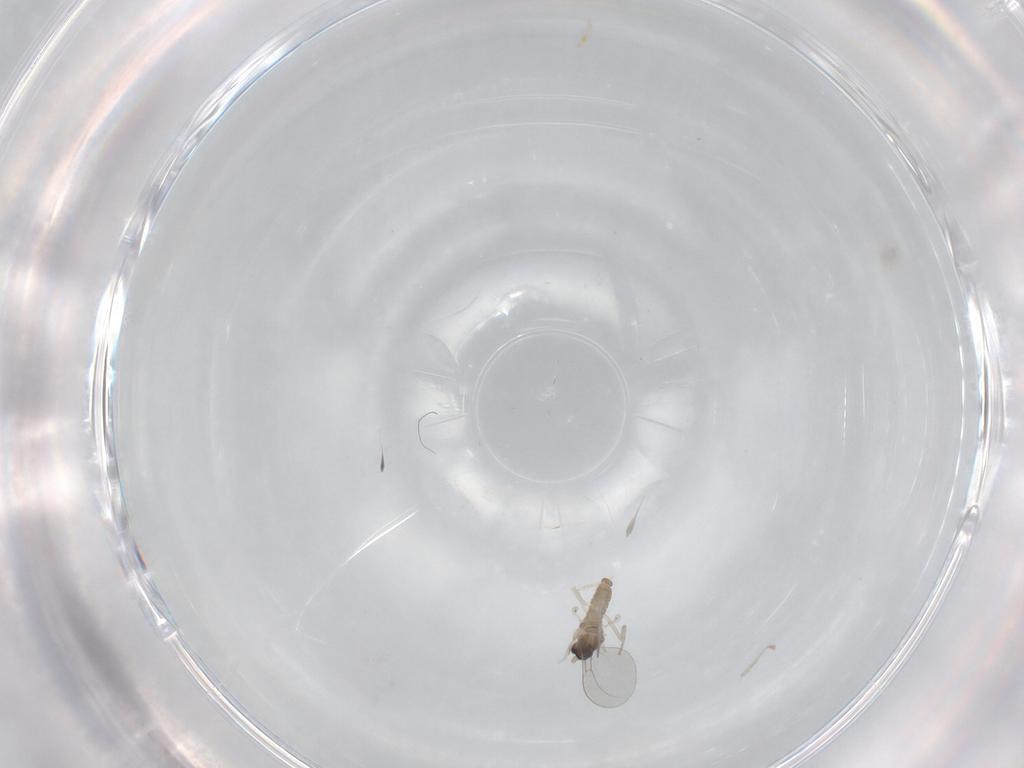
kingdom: Animalia
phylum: Arthropoda
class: Insecta
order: Diptera
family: Cecidomyiidae
